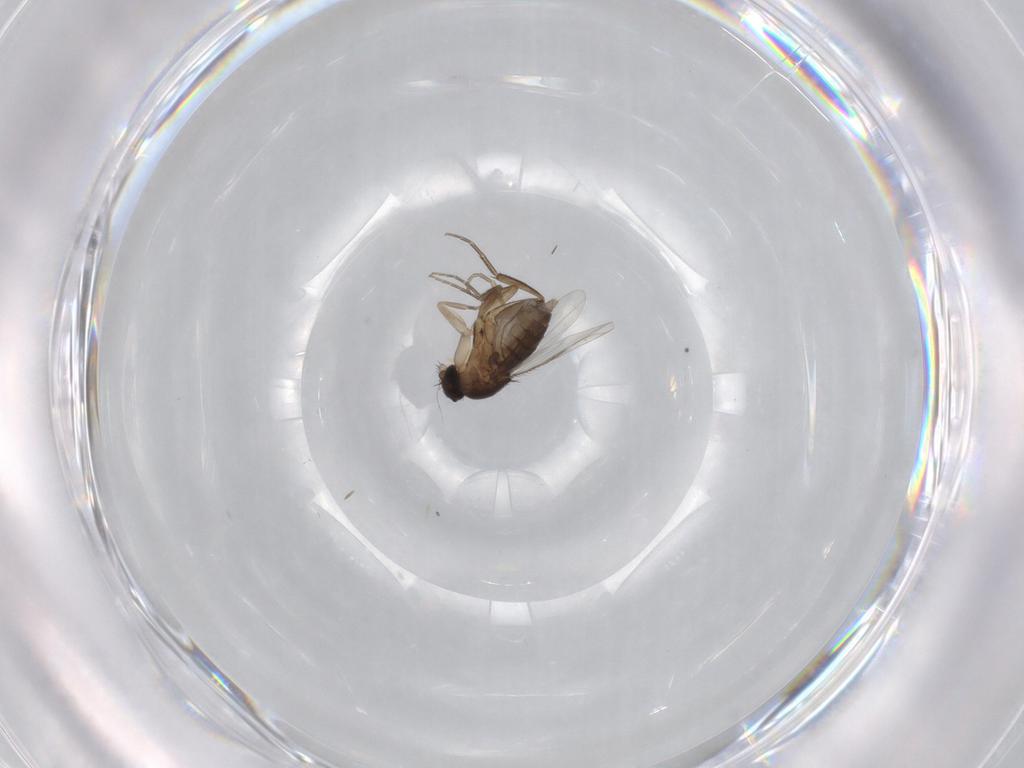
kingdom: Animalia
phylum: Arthropoda
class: Insecta
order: Diptera
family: Phoridae
